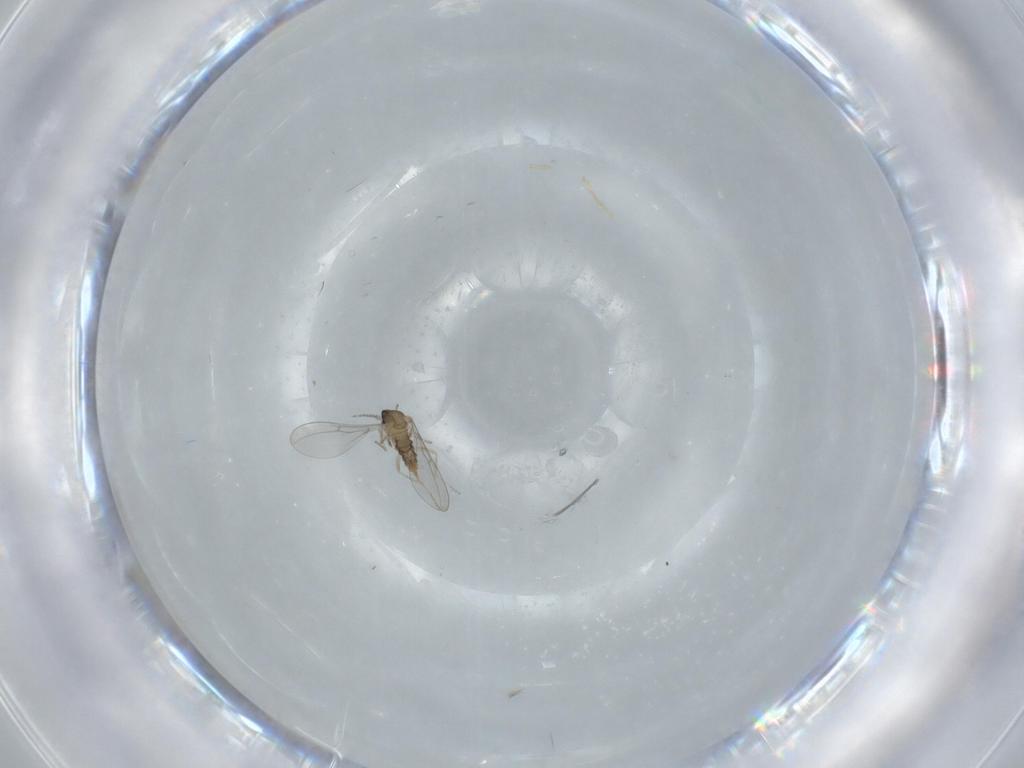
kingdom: Animalia
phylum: Arthropoda
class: Insecta
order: Diptera
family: Cecidomyiidae
